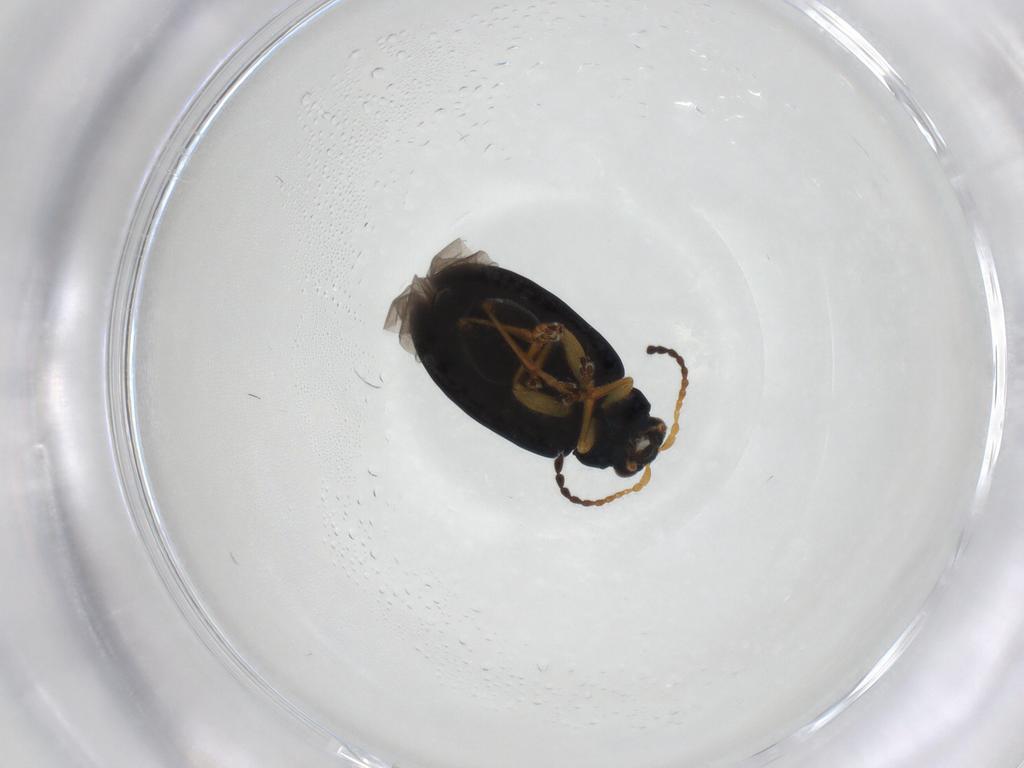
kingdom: Animalia
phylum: Arthropoda
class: Insecta
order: Coleoptera
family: Chrysomelidae
